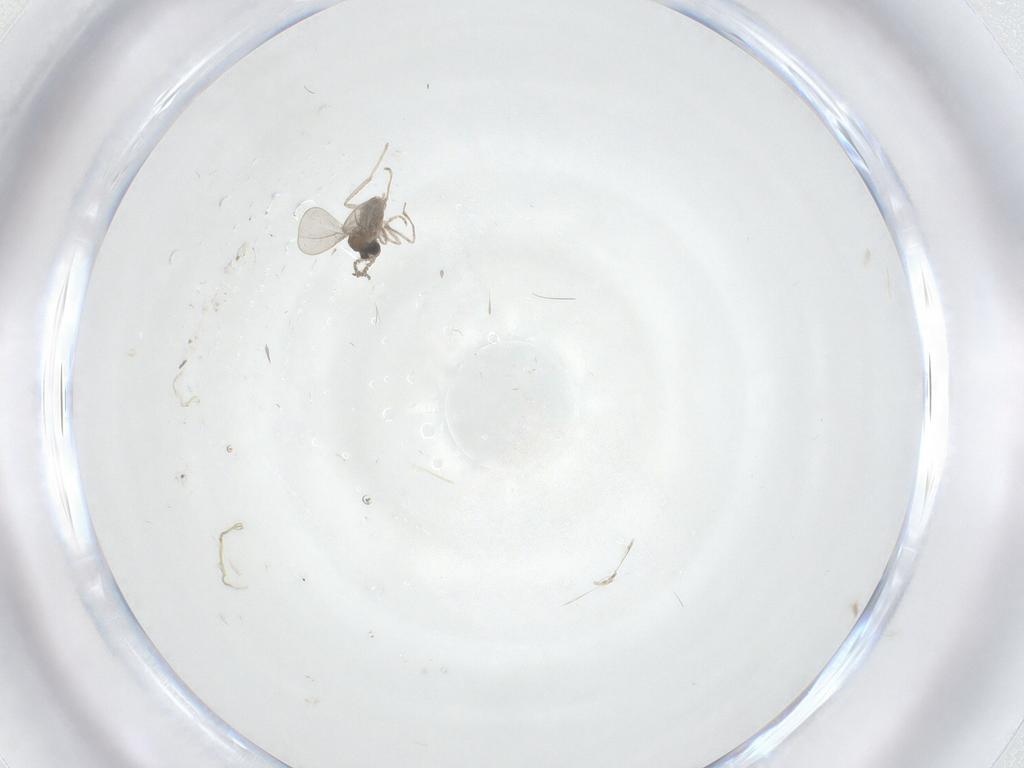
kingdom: Animalia
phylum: Arthropoda
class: Insecta
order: Diptera
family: Cecidomyiidae
